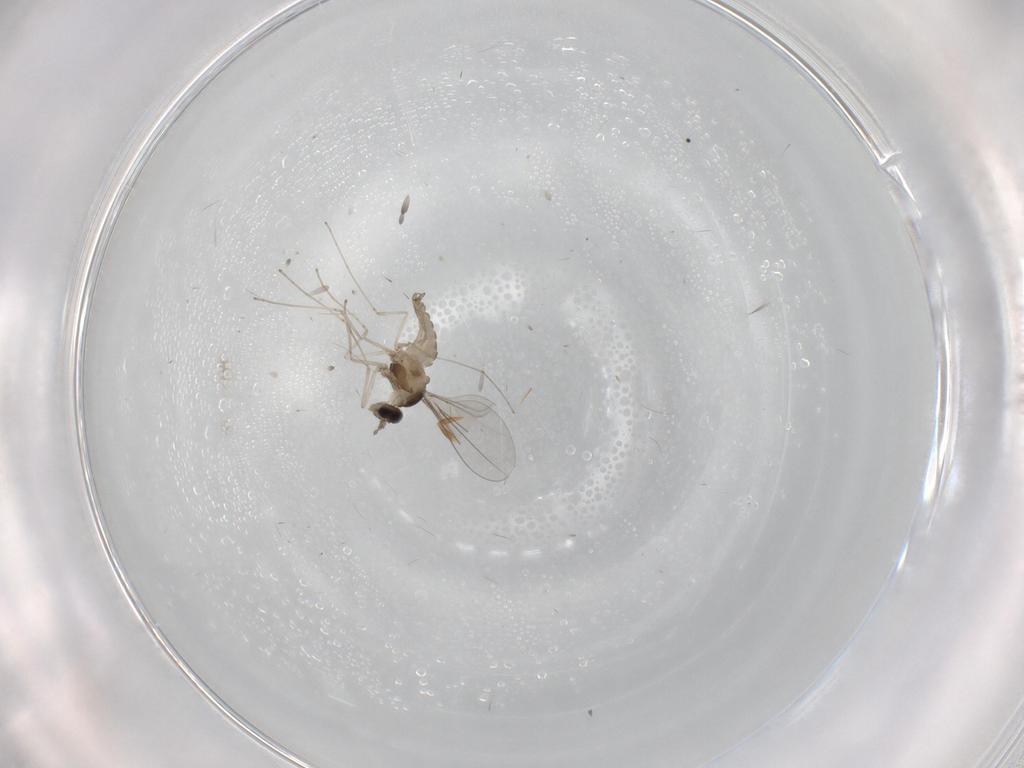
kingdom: Animalia
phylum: Arthropoda
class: Insecta
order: Diptera
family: Cecidomyiidae
